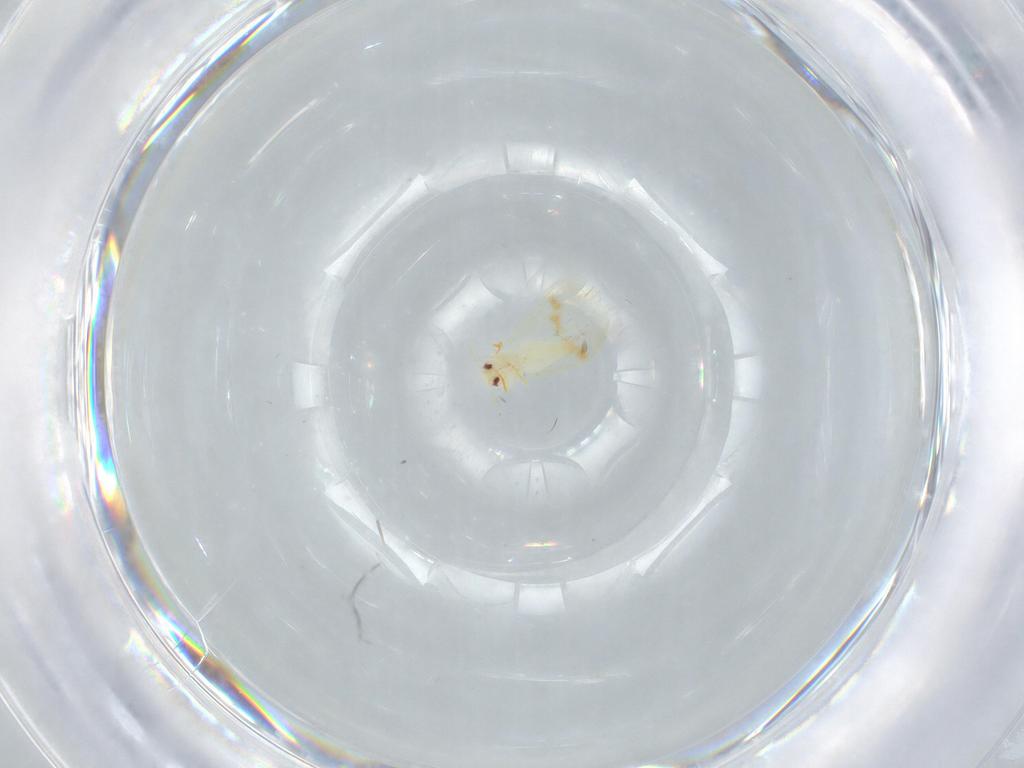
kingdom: Animalia
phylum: Arthropoda
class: Insecta
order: Hemiptera
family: Aleyrodidae
